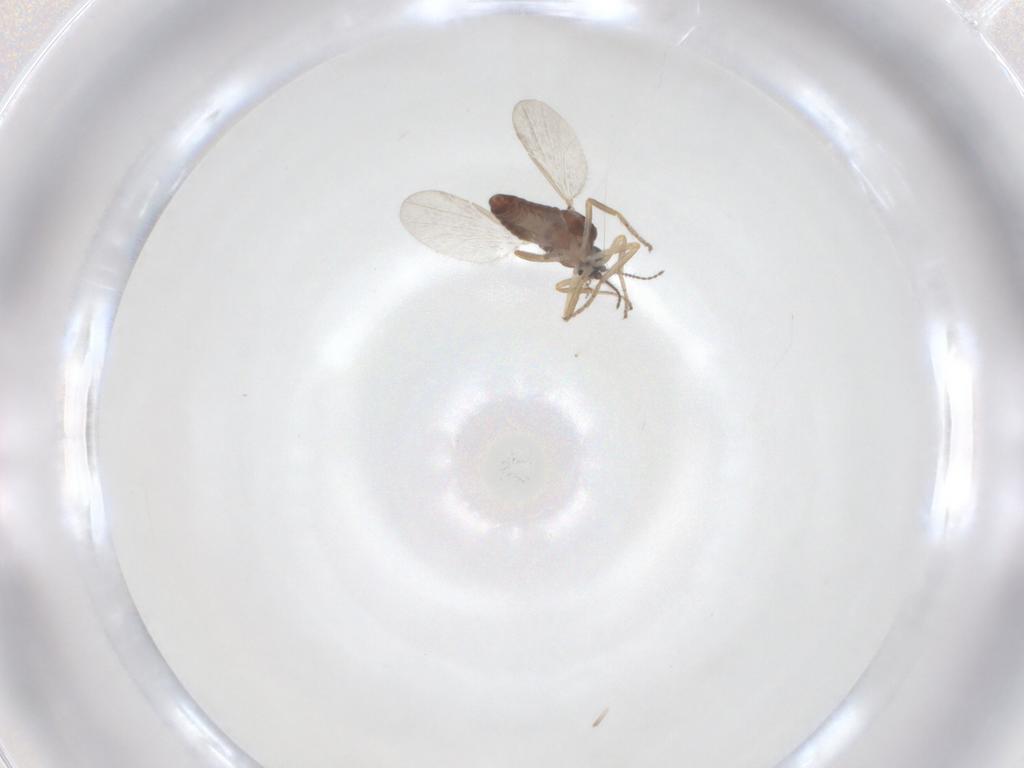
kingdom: Animalia
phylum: Arthropoda
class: Insecta
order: Diptera
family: Ceratopogonidae
